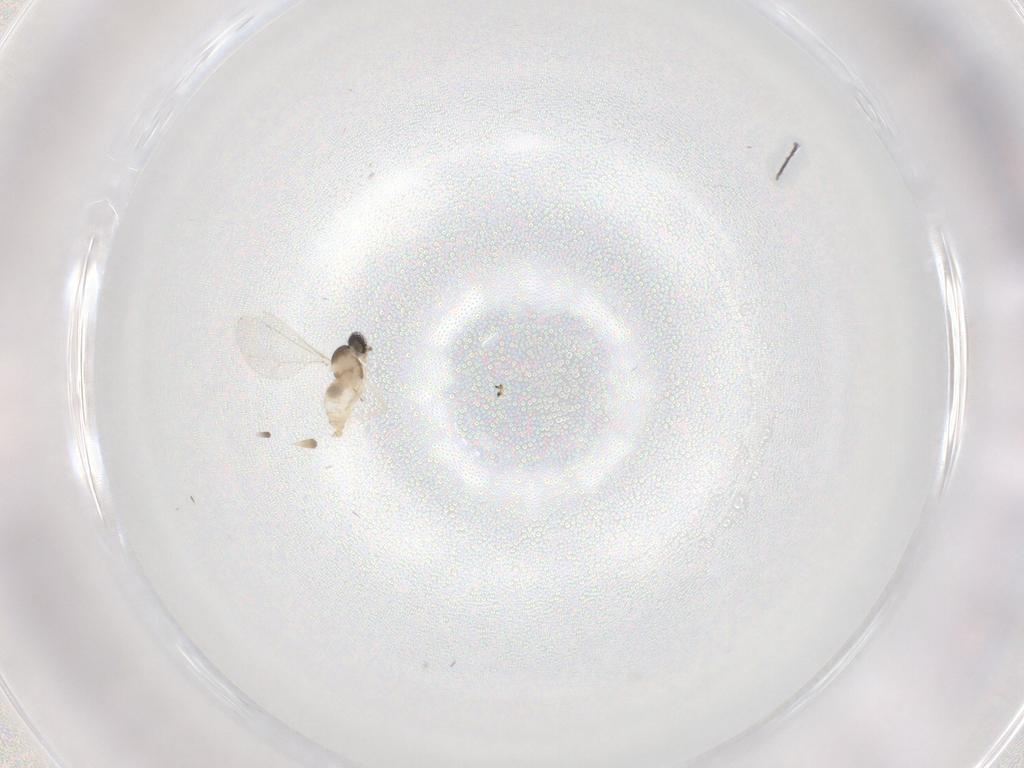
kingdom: Animalia
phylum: Arthropoda
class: Insecta
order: Diptera
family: Cecidomyiidae
